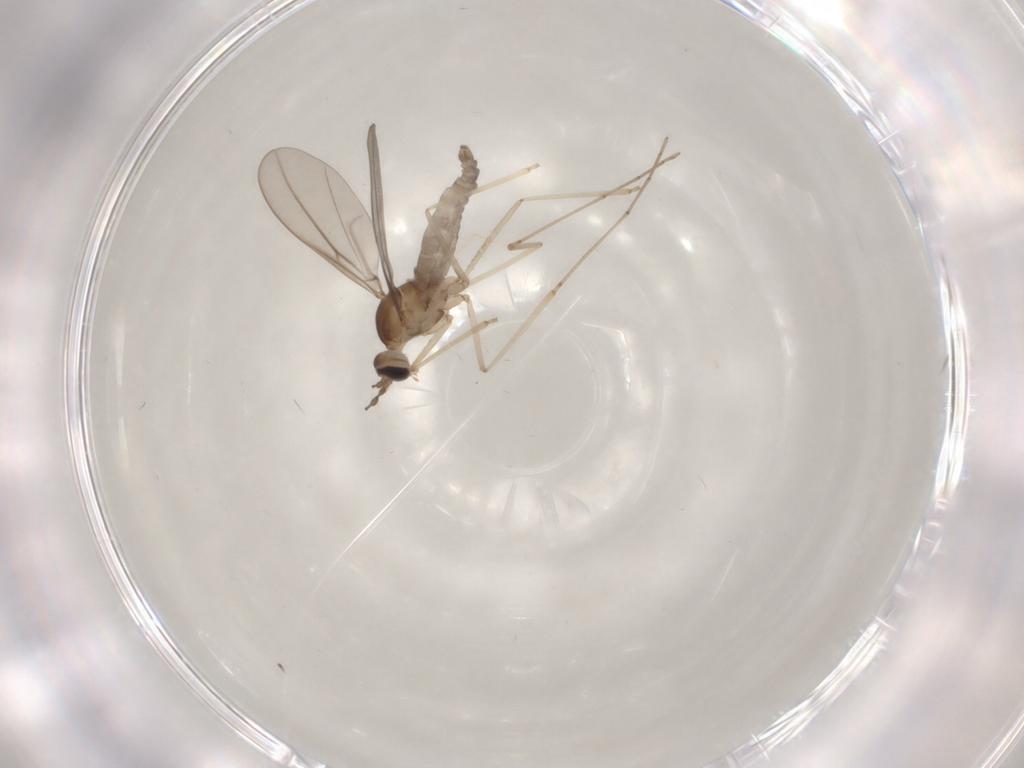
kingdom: Animalia
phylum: Arthropoda
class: Insecta
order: Diptera
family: Cecidomyiidae
